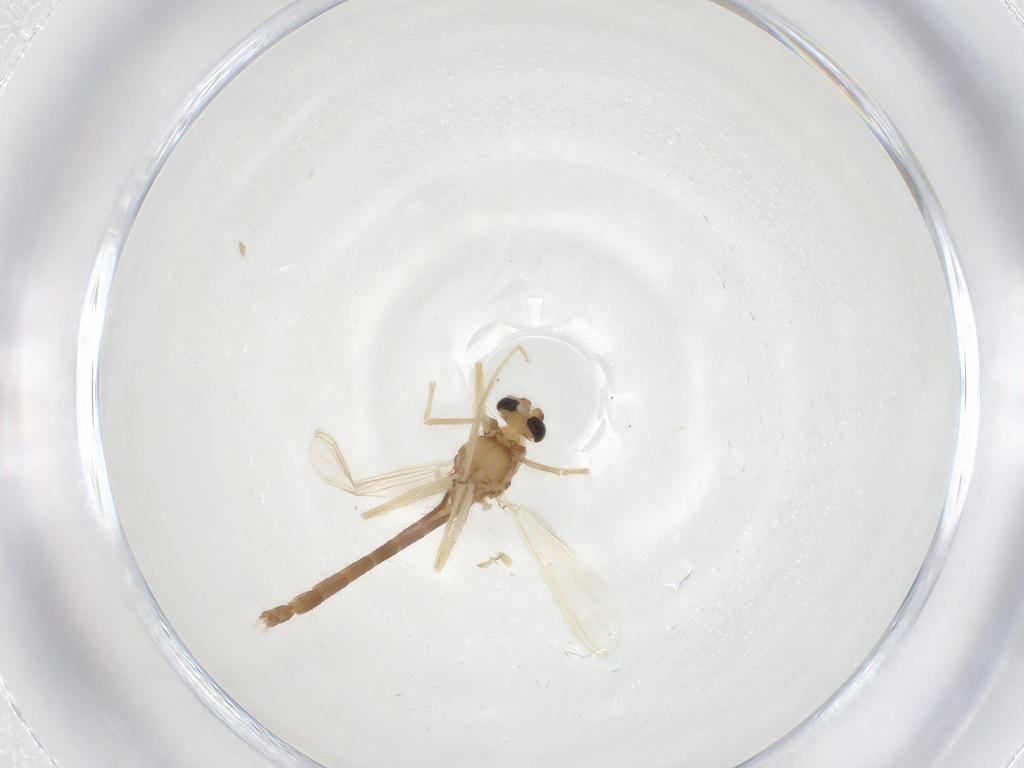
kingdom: Animalia
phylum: Arthropoda
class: Insecta
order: Diptera
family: Chironomidae
